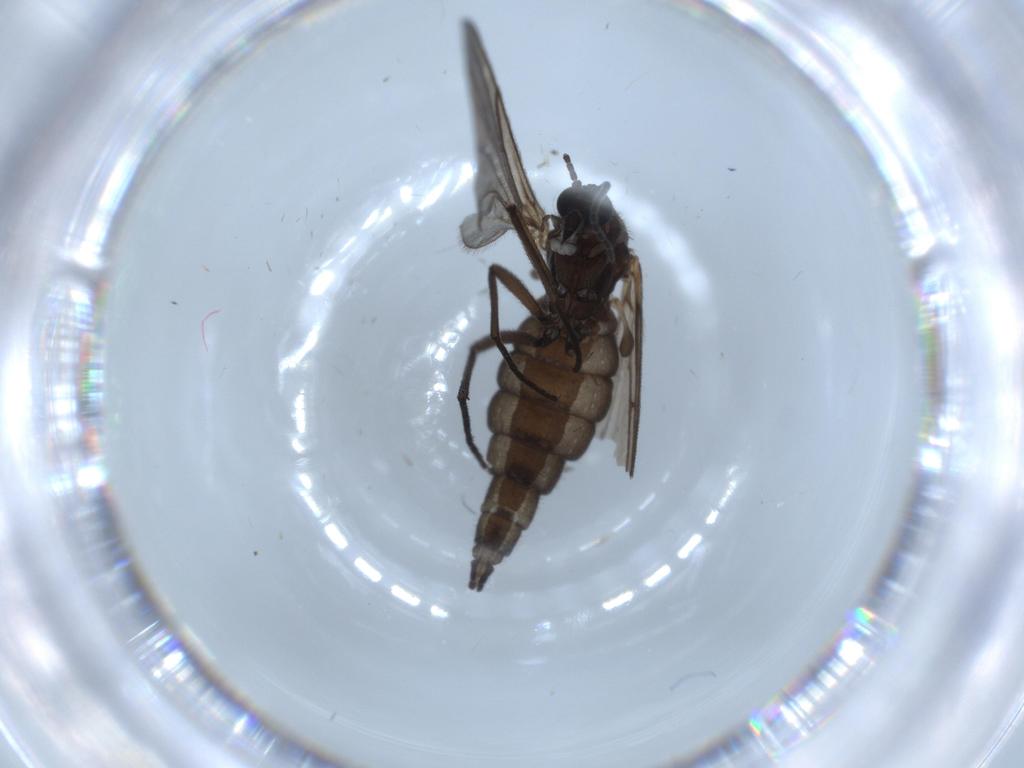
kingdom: Animalia
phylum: Arthropoda
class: Insecta
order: Diptera
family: Sciaridae
